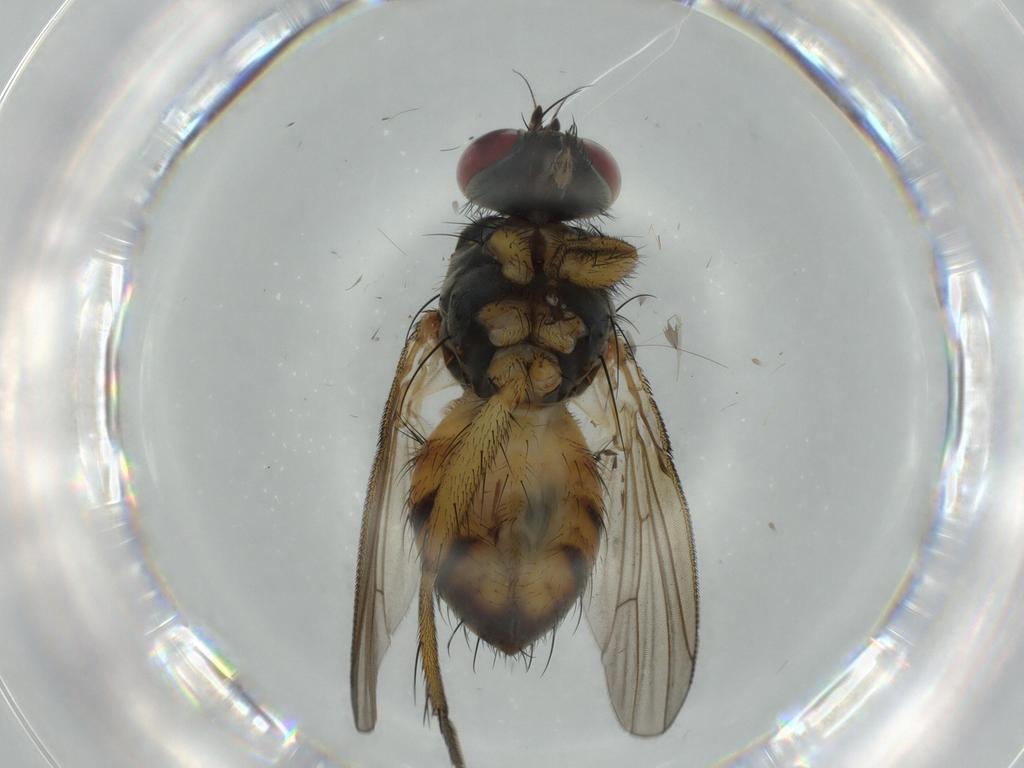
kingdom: Animalia
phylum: Arthropoda
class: Insecta
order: Diptera
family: Muscidae
